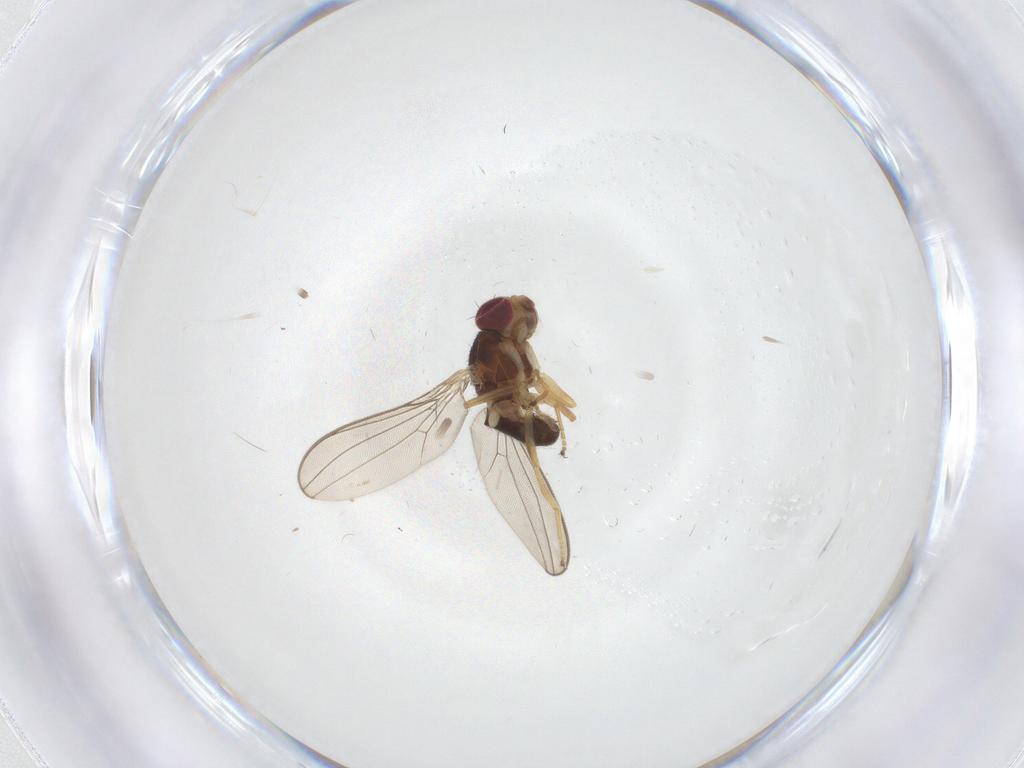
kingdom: Animalia
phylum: Arthropoda
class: Insecta
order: Diptera
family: Asteiidae
